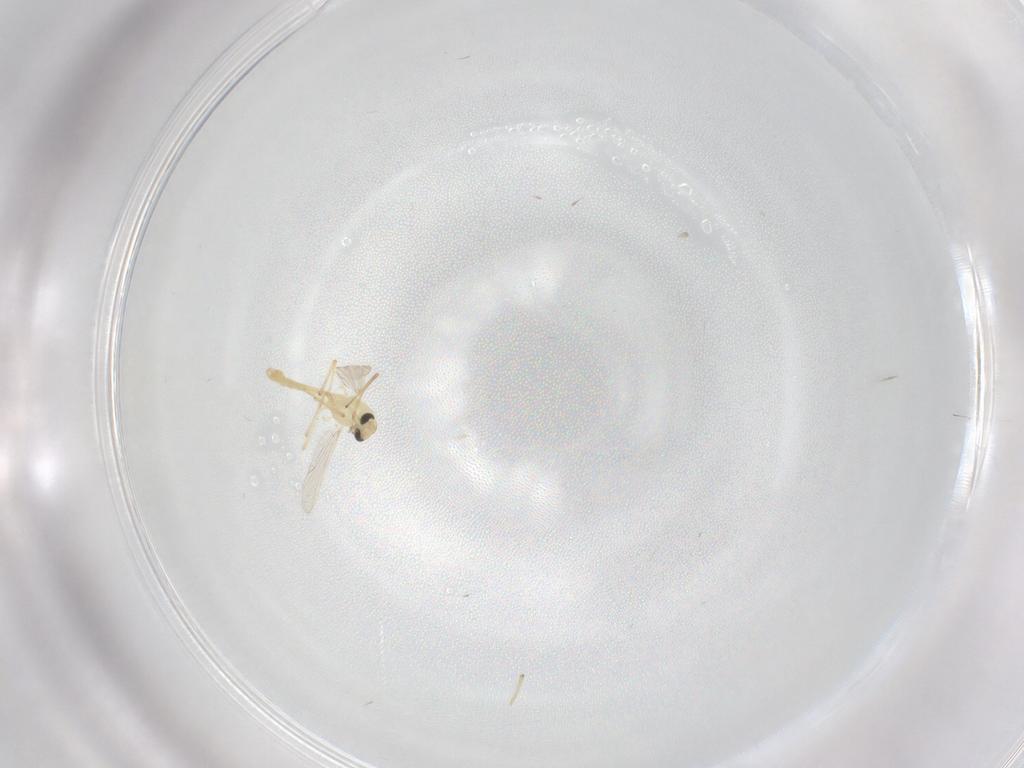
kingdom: Animalia
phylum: Arthropoda
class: Insecta
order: Diptera
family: Chironomidae
